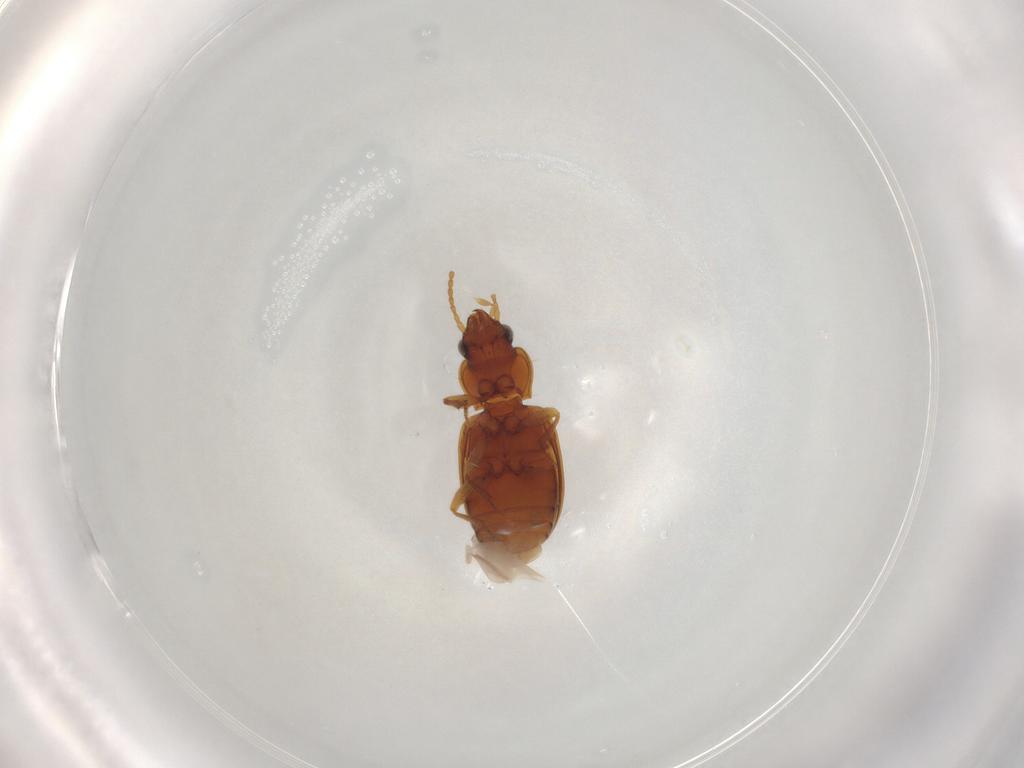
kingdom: Animalia
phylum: Arthropoda
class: Insecta
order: Coleoptera
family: Carabidae
